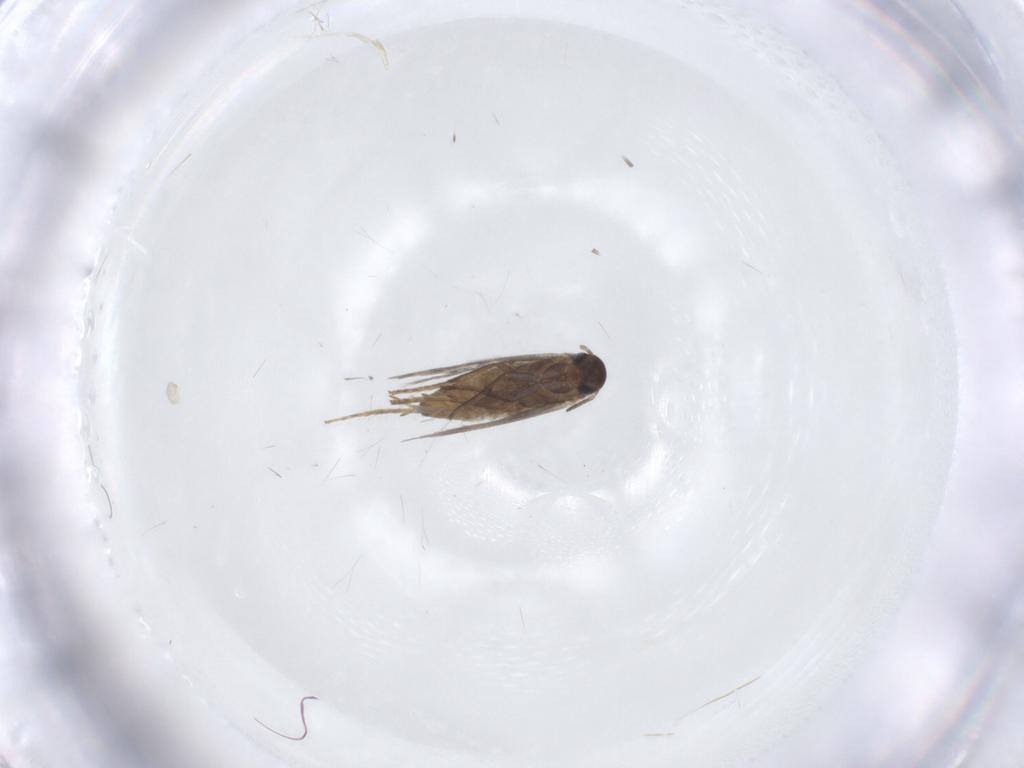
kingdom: Animalia
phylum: Arthropoda
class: Insecta
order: Lepidoptera
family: Heliozelidae
